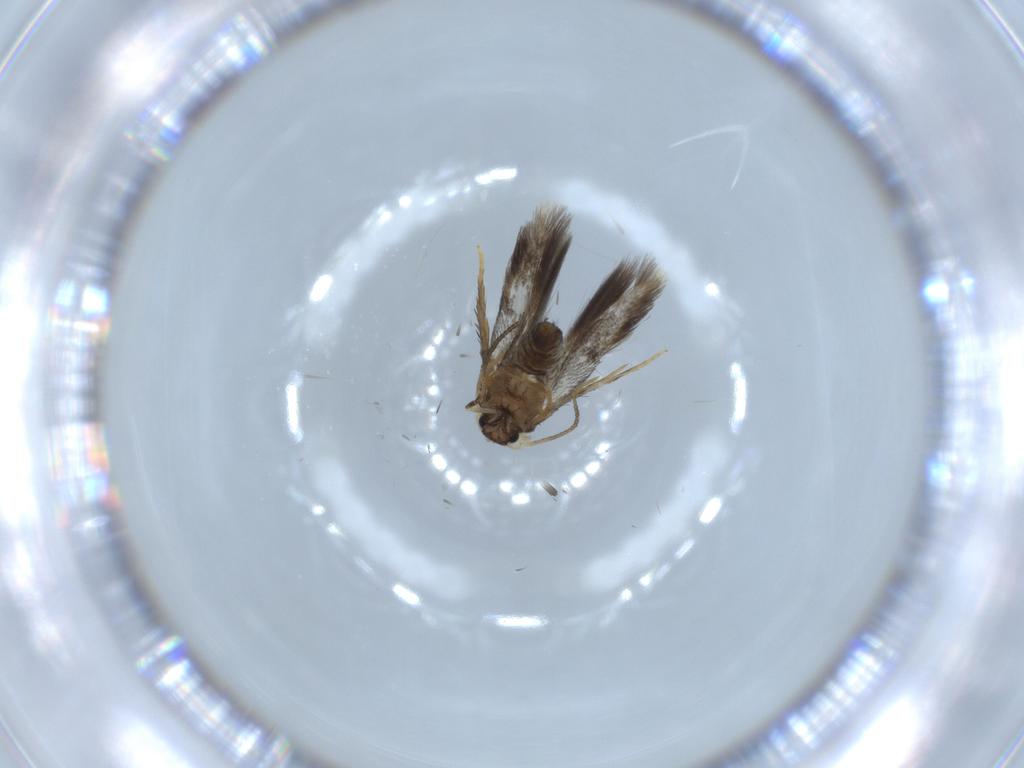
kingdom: Animalia
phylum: Arthropoda
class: Insecta
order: Lepidoptera
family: Nepticulidae
